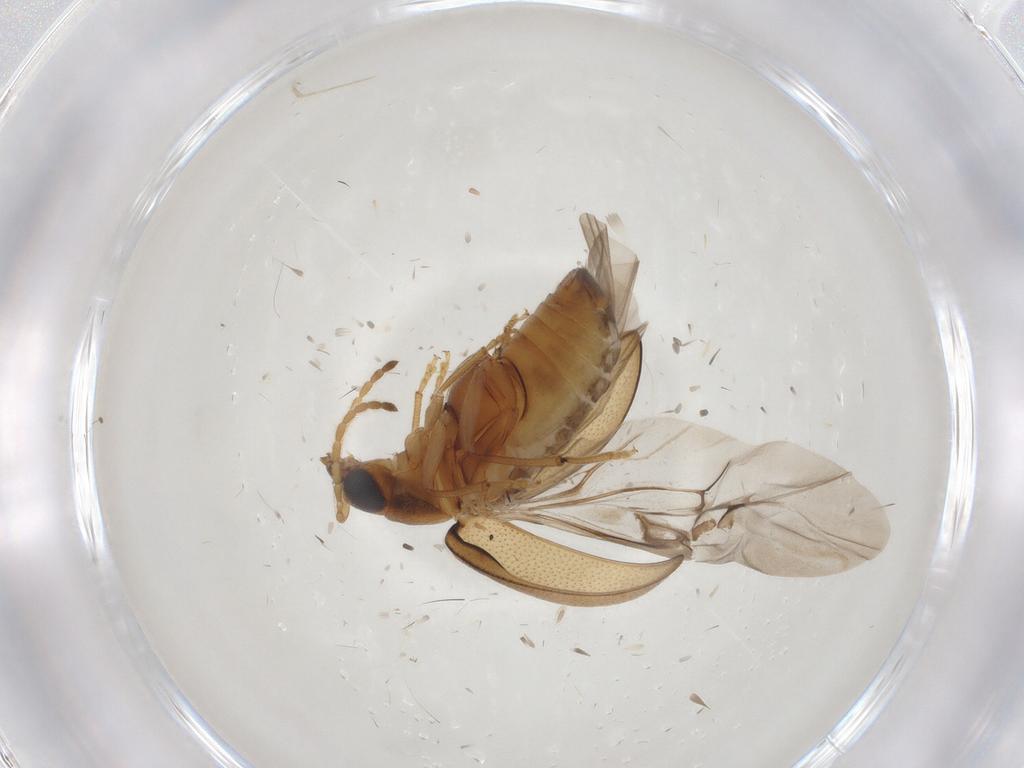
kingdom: Animalia
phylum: Arthropoda
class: Insecta
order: Coleoptera
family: Chrysomelidae
